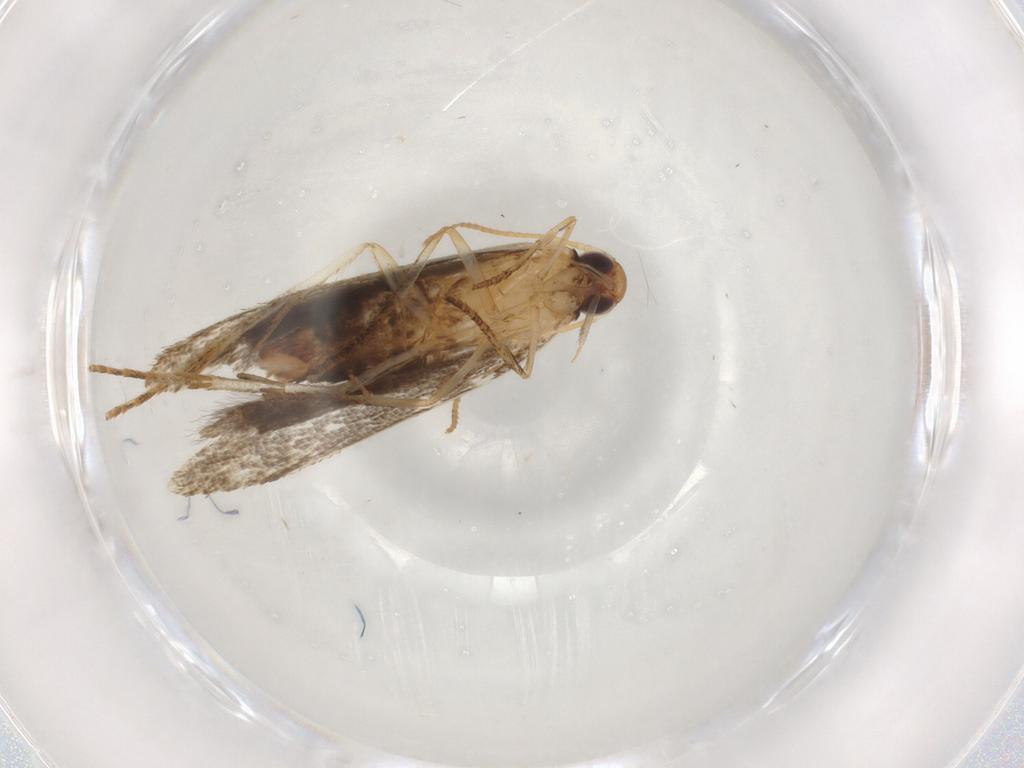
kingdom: Animalia
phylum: Arthropoda
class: Insecta
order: Lepidoptera
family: Gelechiidae
